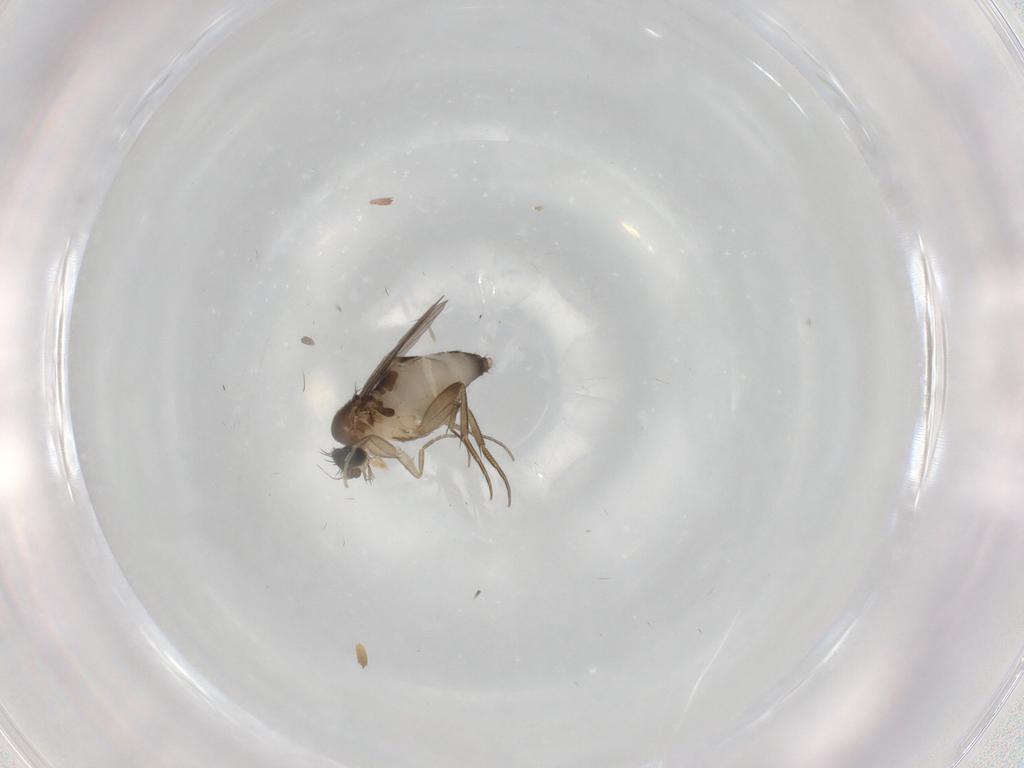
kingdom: Animalia
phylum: Arthropoda
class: Insecta
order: Diptera
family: Phoridae
